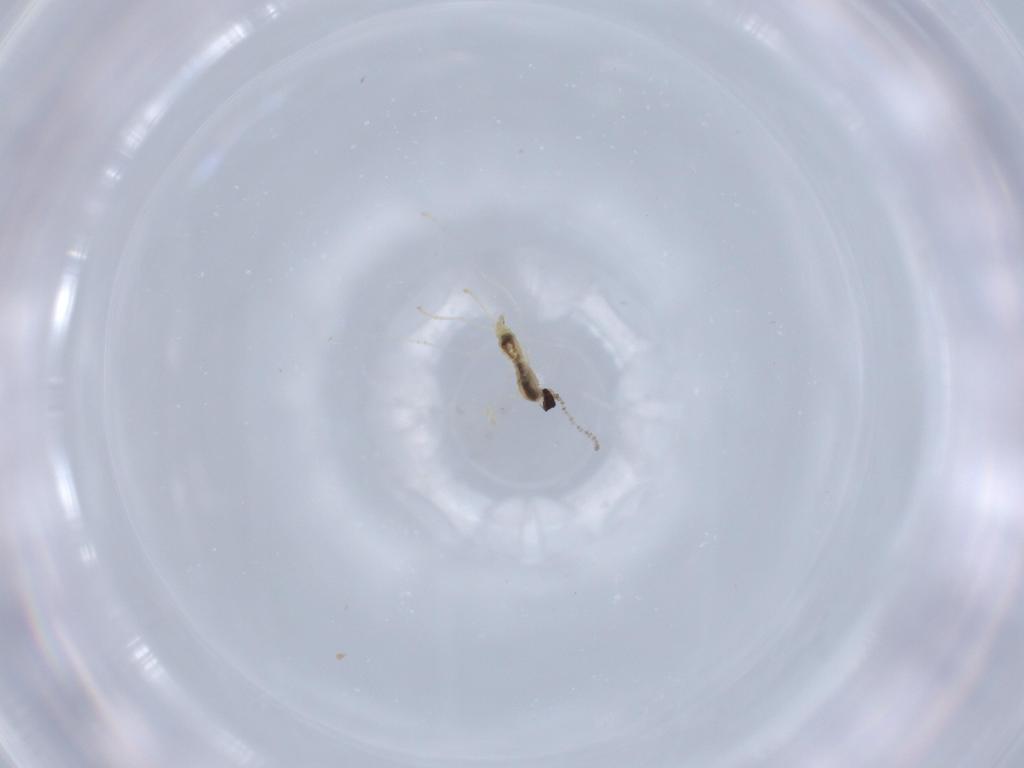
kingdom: Animalia
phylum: Arthropoda
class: Insecta
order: Diptera
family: Cecidomyiidae
